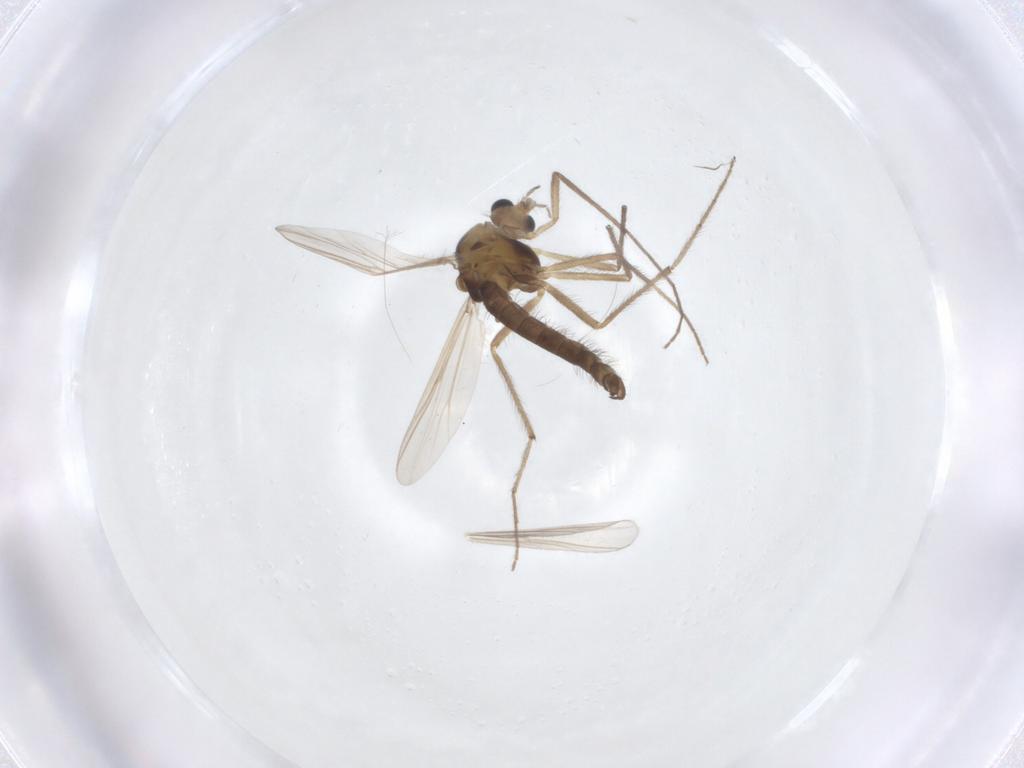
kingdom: Animalia
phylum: Arthropoda
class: Insecta
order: Diptera
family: Chironomidae
